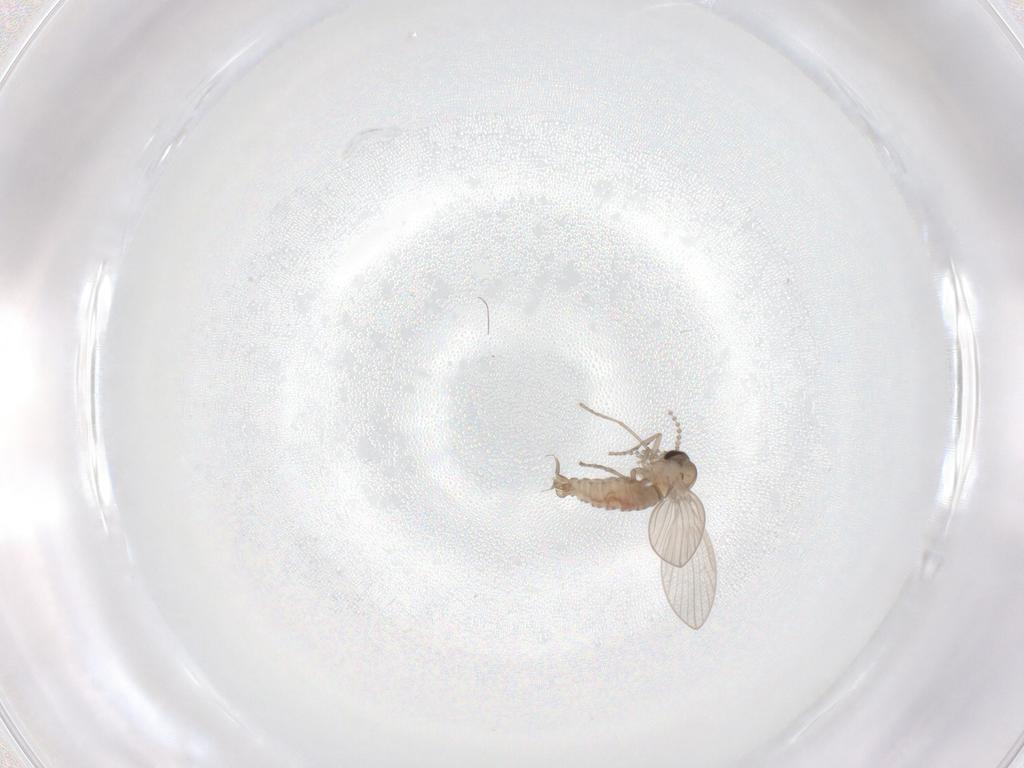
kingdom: Animalia
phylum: Arthropoda
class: Insecta
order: Diptera
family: Psychodidae
